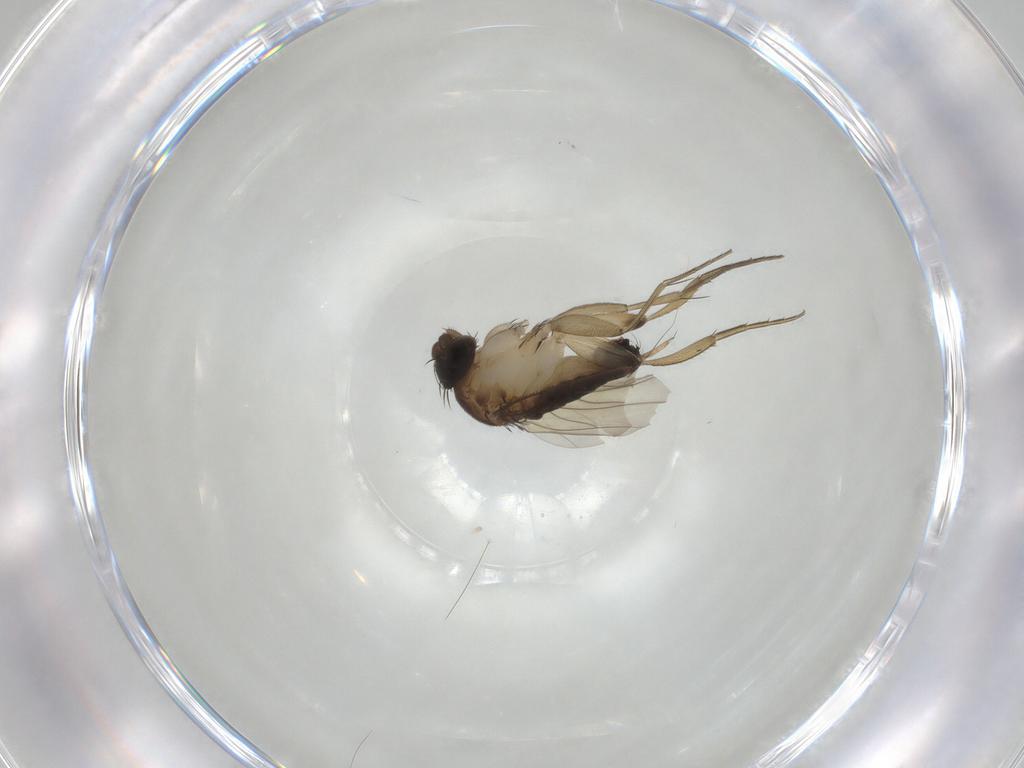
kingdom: Animalia
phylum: Arthropoda
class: Insecta
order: Diptera
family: Phoridae
